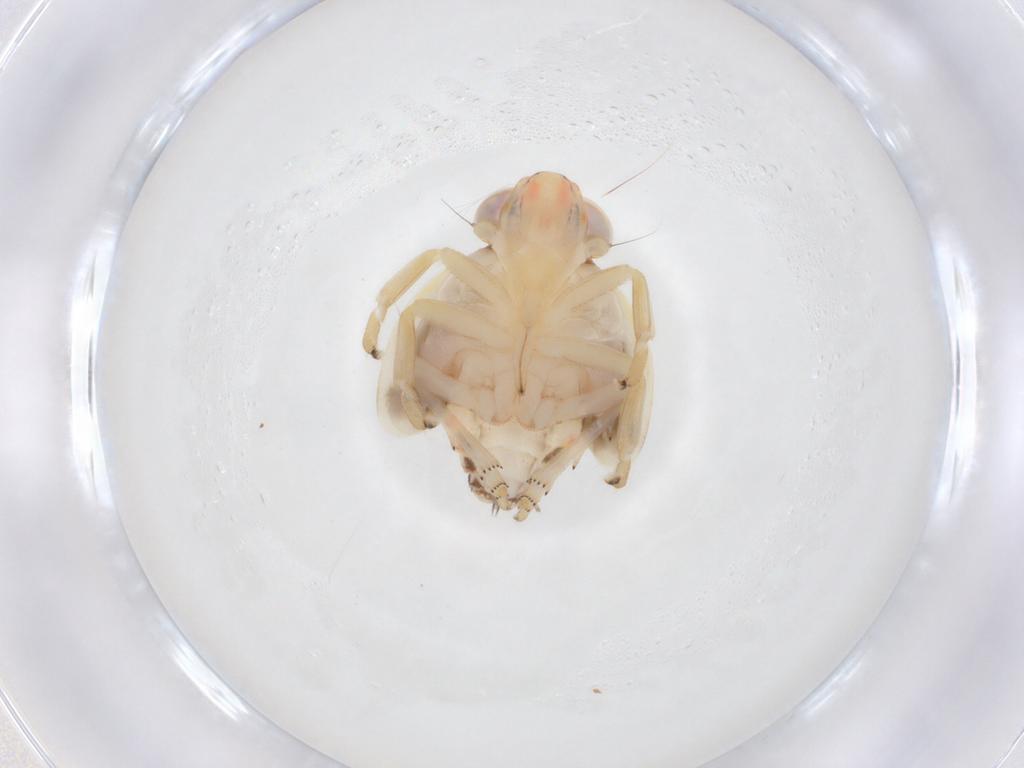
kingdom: Animalia
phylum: Arthropoda
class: Insecta
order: Hemiptera
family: Nogodinidae
